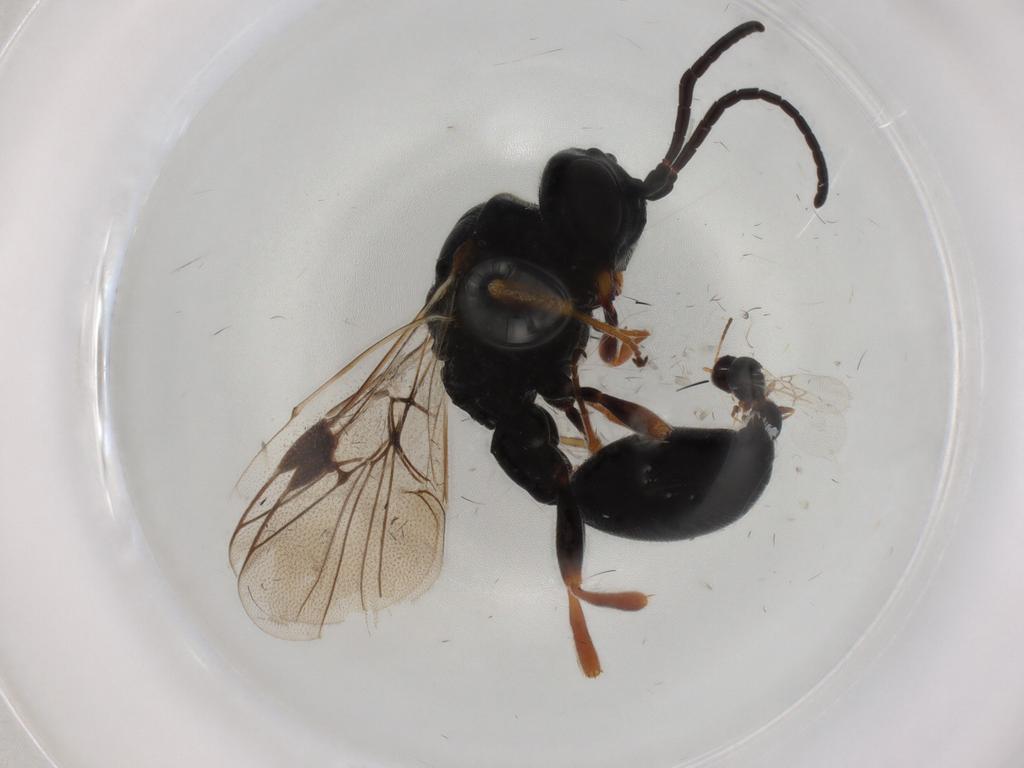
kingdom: Animalia
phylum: Arthropoda
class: Insecta
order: Hymenoptera
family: Figitidae
